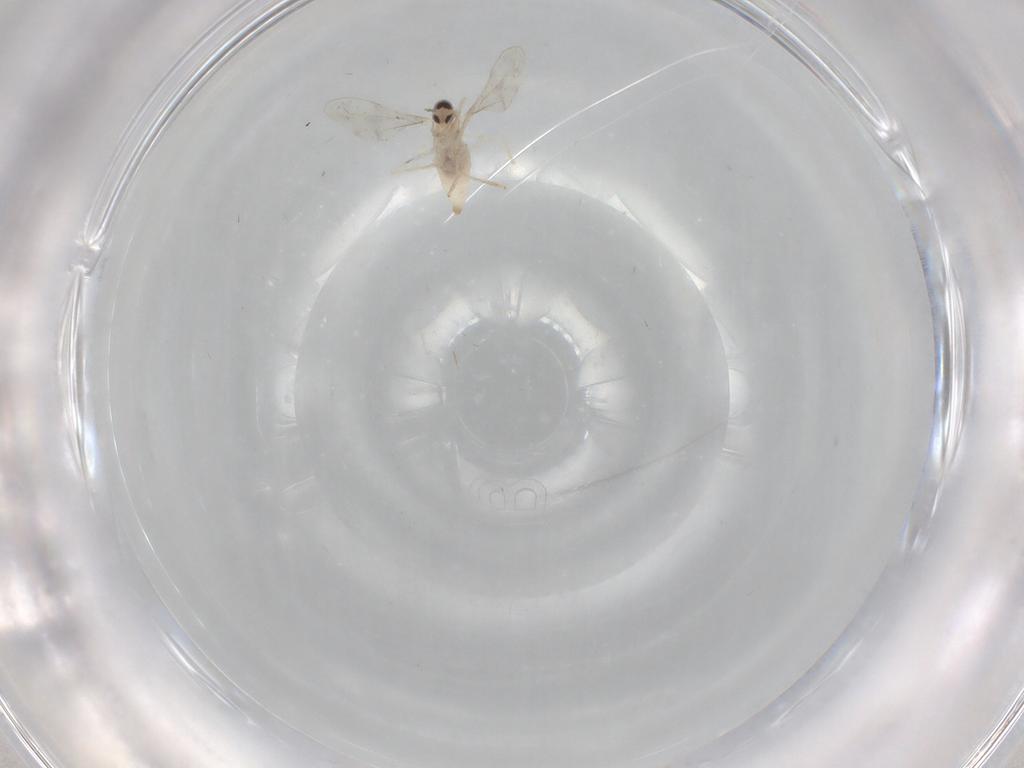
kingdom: Animalia
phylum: Arthropoda
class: Insecta
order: Diptera
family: Cecidomyiidae
